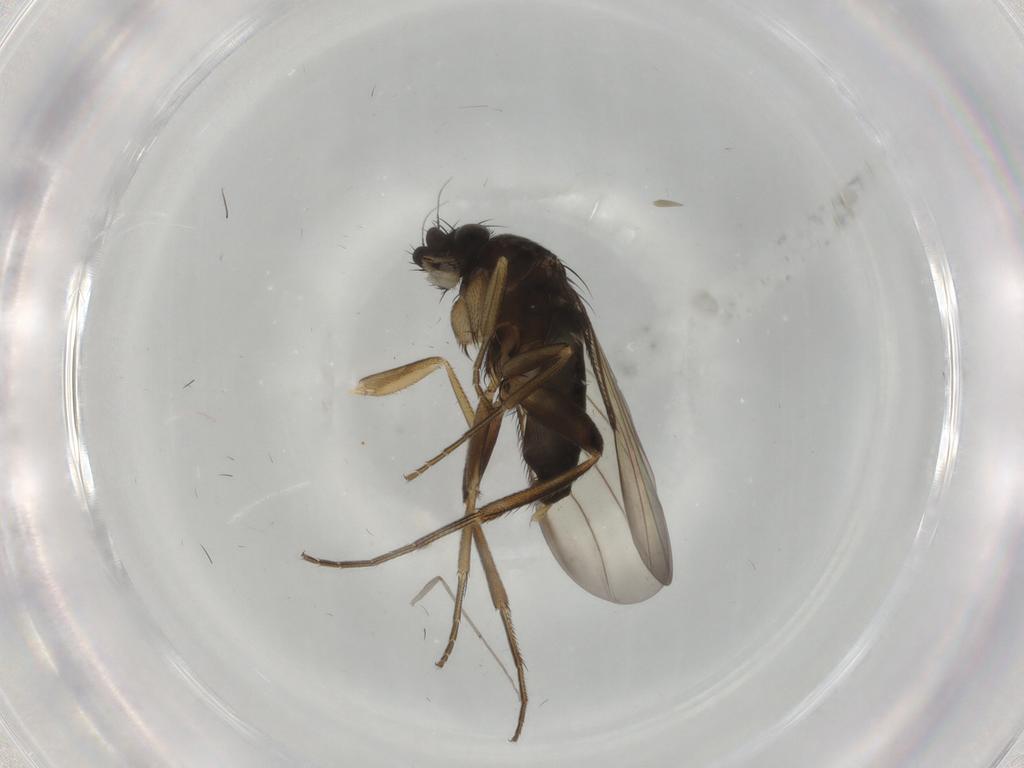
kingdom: Animalia
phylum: Arthropoda
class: Insecta
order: Diptera
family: Phoridae
